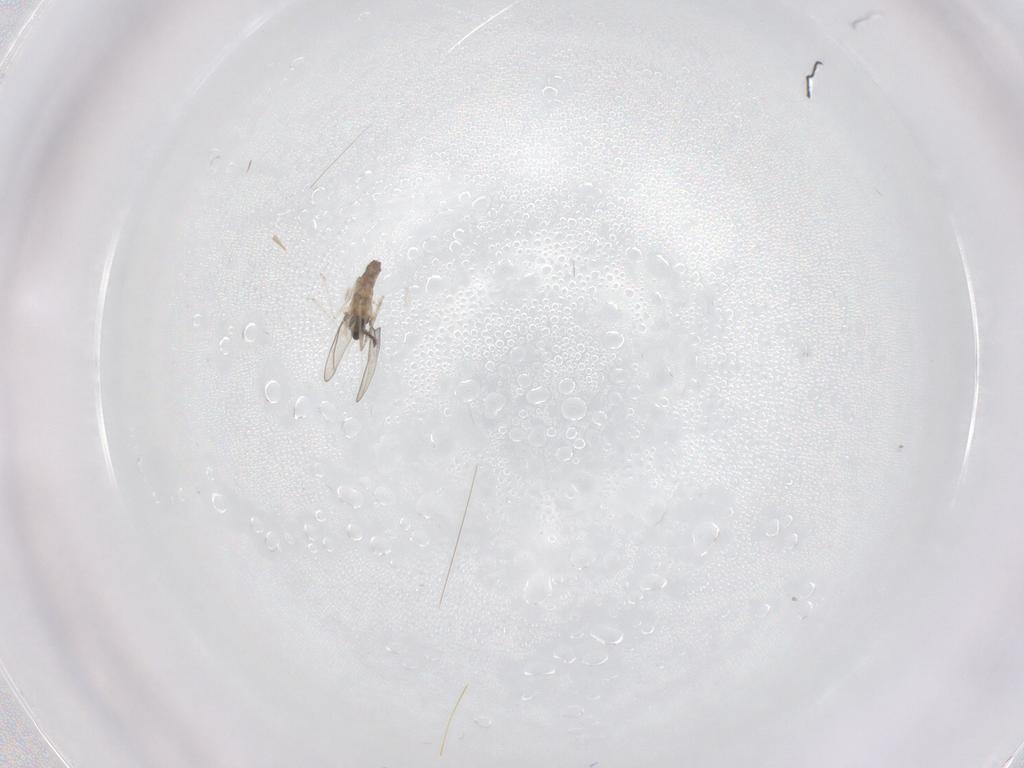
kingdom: Animalia
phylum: Arthropoda
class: Insecta
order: Diptera
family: Cecidomyiidae
